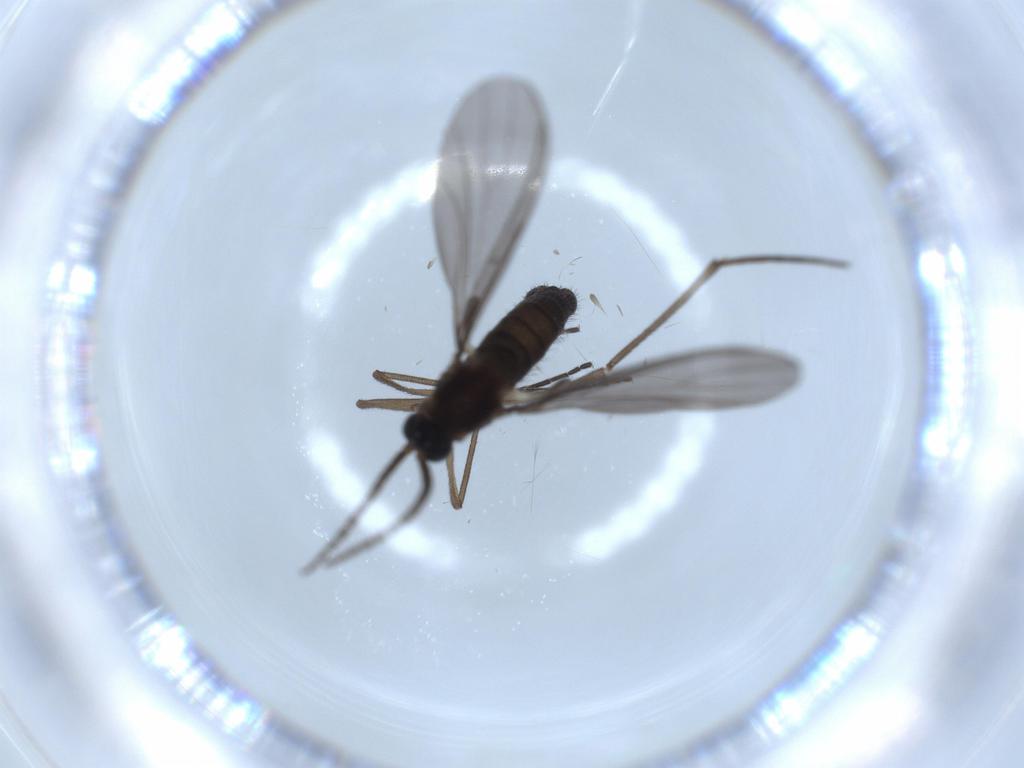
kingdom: Animalia
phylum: Arthropoda
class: Insecta
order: Diptera
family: Sciaridae
